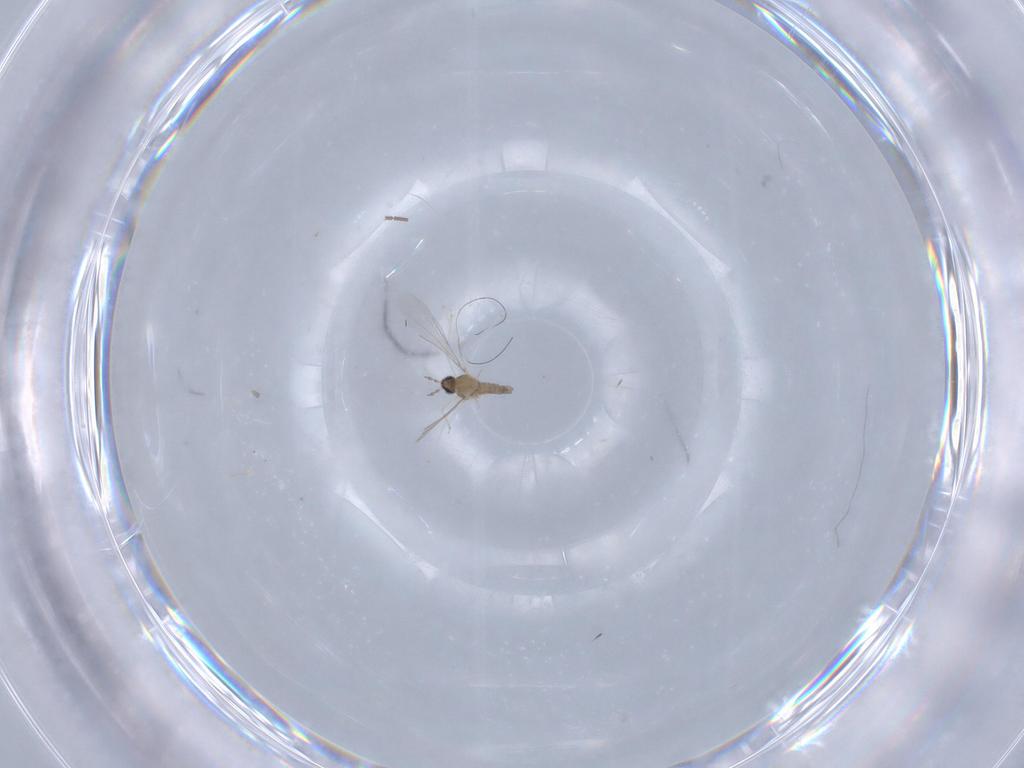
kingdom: Animalia
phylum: Arthropoda
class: Insecta
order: Diptera
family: Sciaridae
